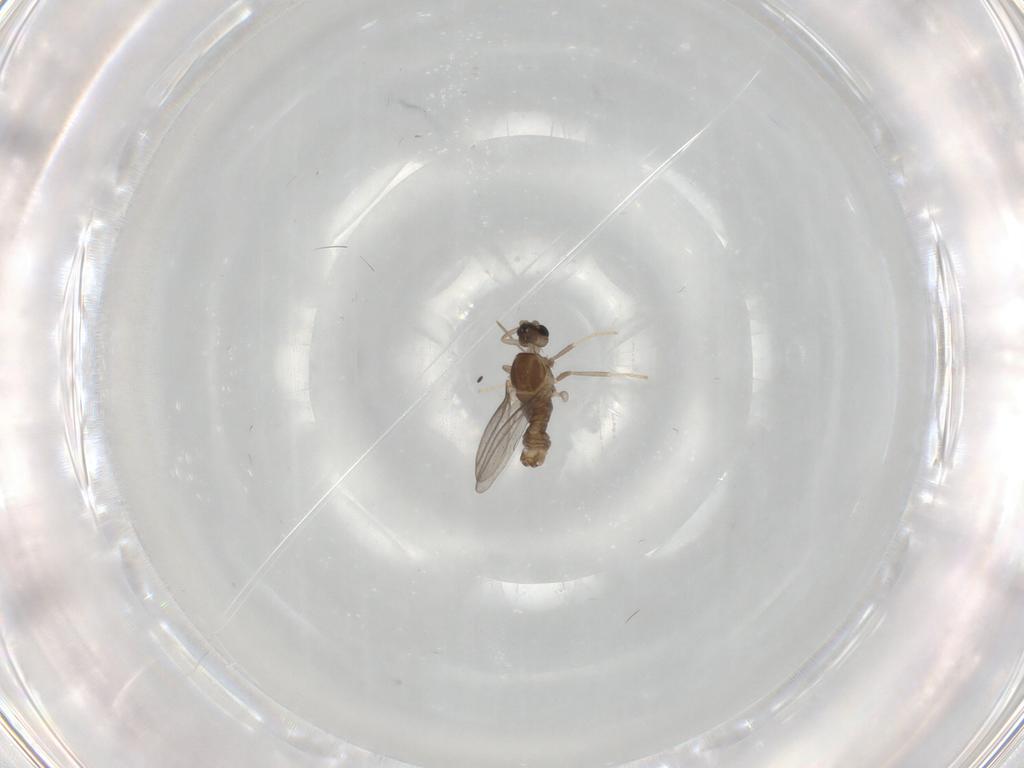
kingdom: Animalia
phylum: Arthropoda
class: Insecta
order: Diptera
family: Cecidomyiidae
